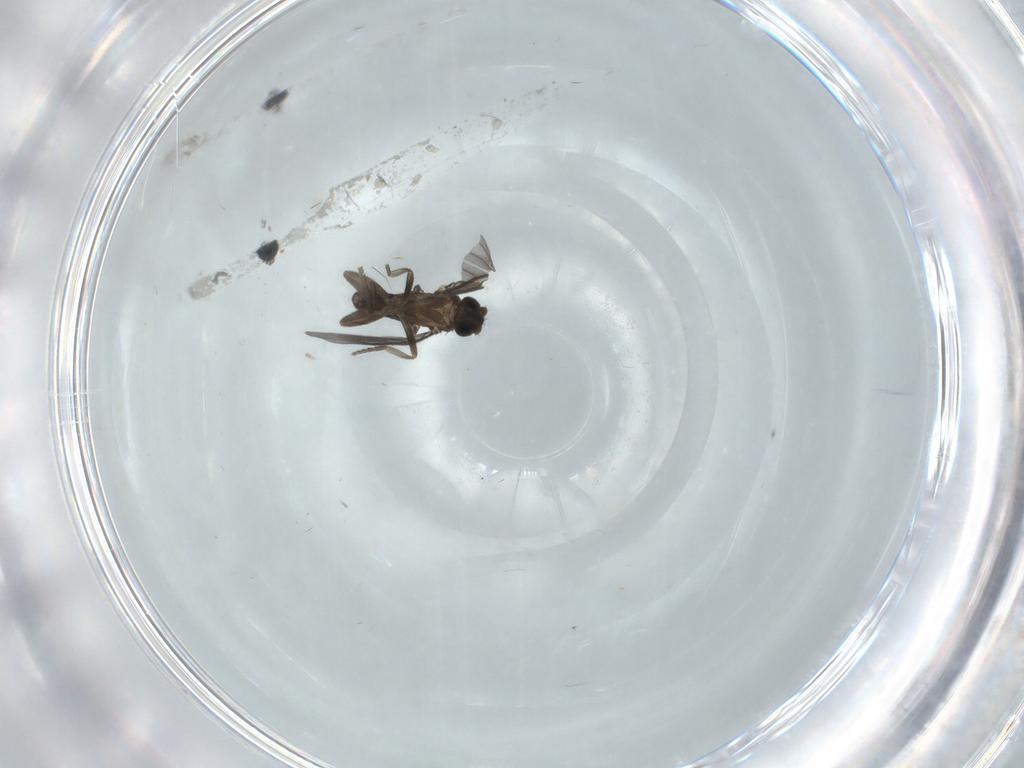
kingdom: Animalia
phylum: Arthropoda
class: Insecta
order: Diptera
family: Phoridae
